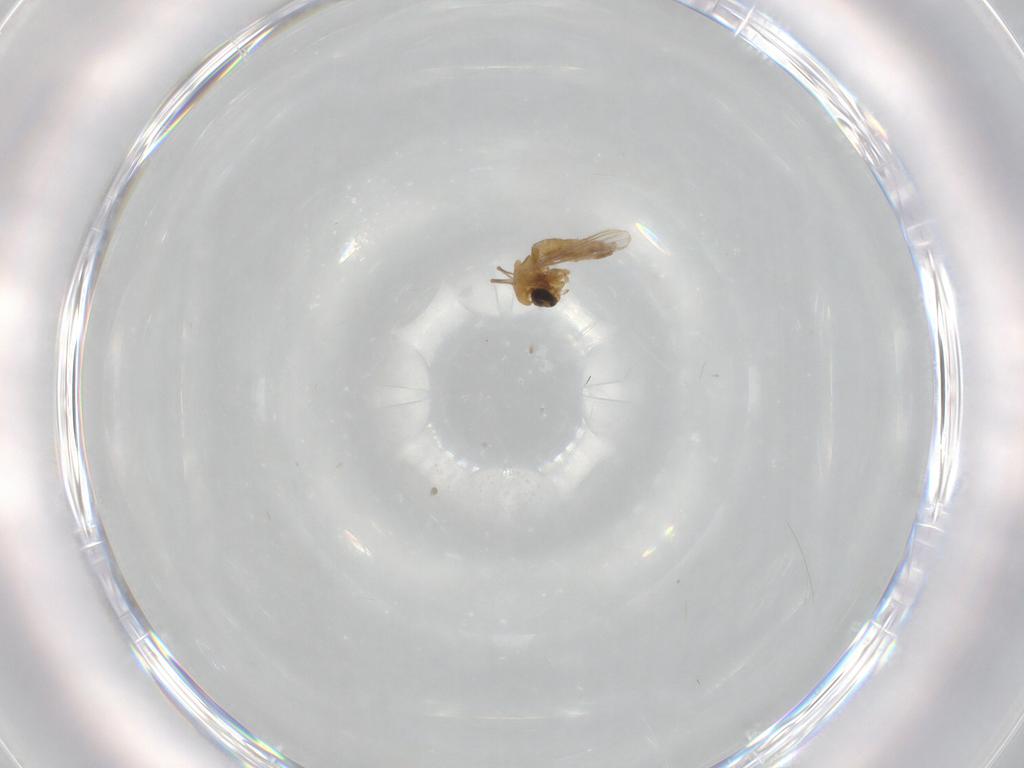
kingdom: Animalia
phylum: Arthropoda
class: Insecta
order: Diptera
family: Chironomidae
